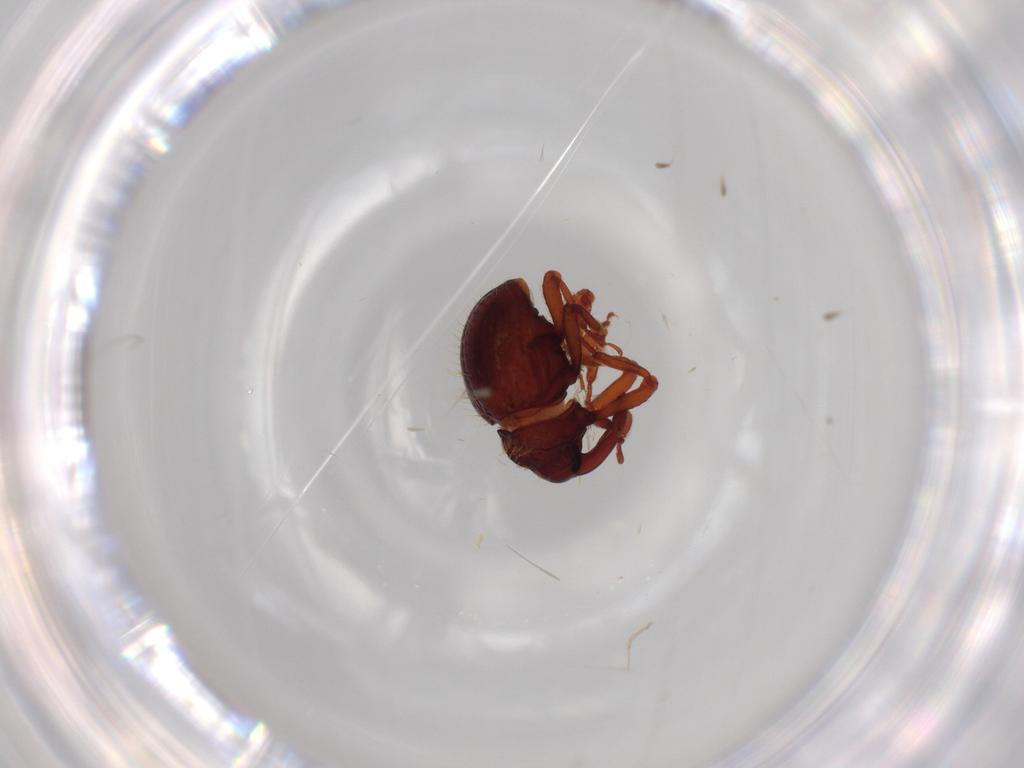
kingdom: Animalia
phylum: Arthropoda
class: Insecta
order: Coleoptera
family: Curculionidae
